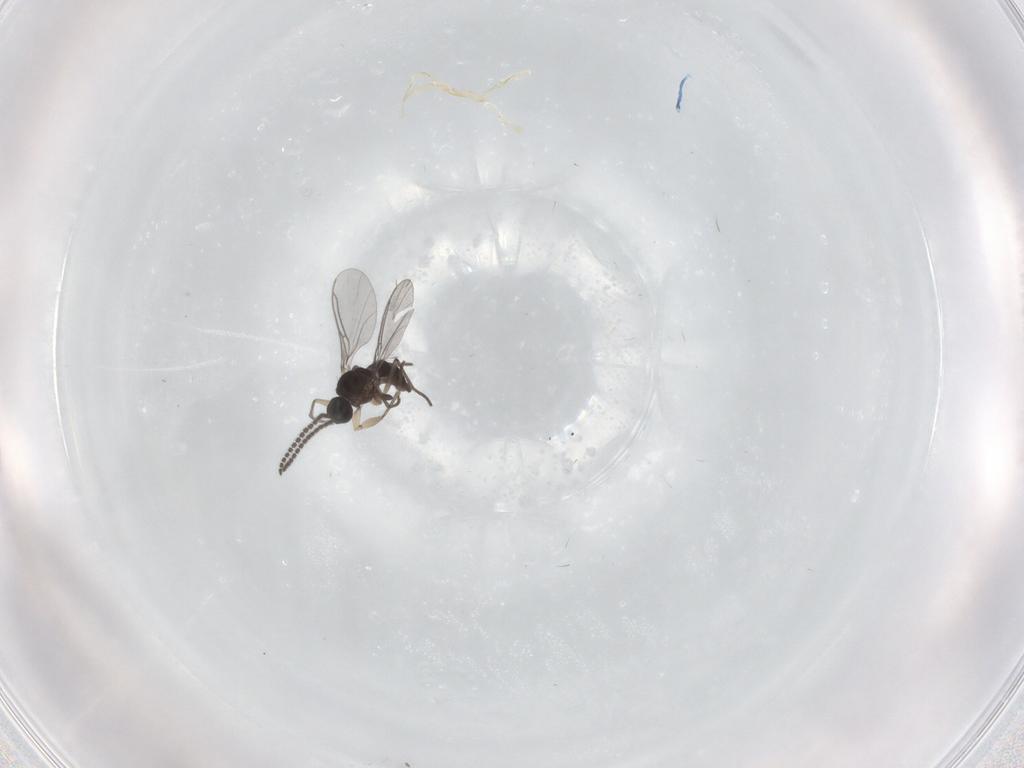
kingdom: Animalia
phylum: Arthropoda
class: Insecta
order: Diptera
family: Sciaridae
